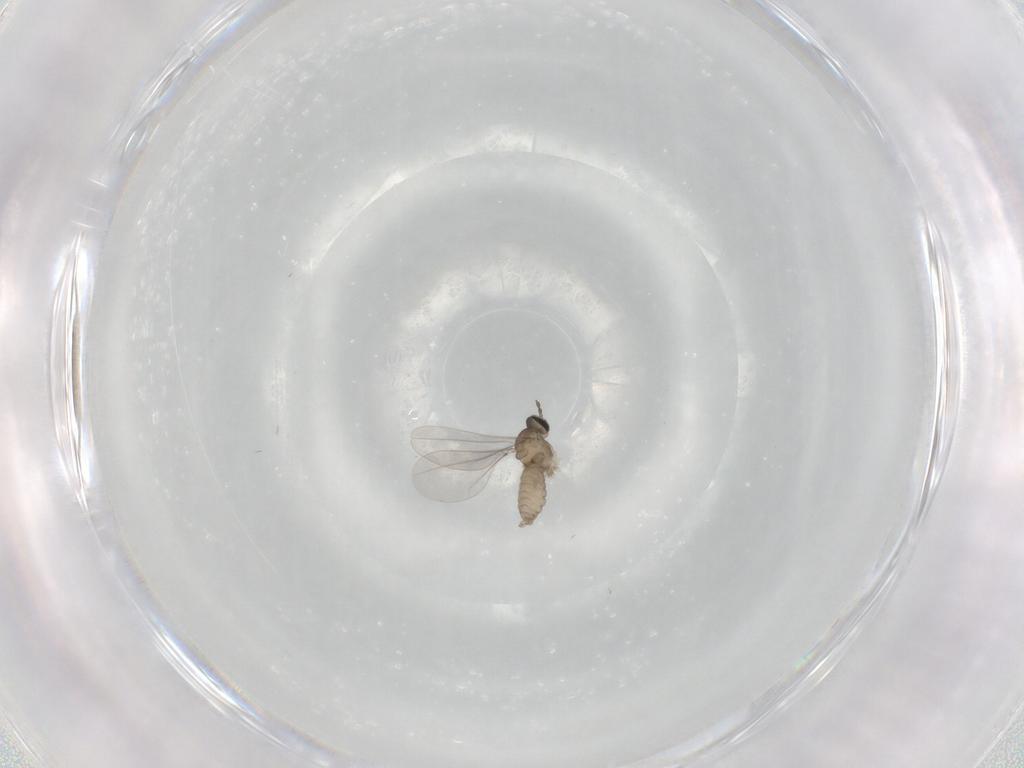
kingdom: Animalia
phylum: Arthropoda
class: Insecta
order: Diptera
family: Cecidomyiidae
